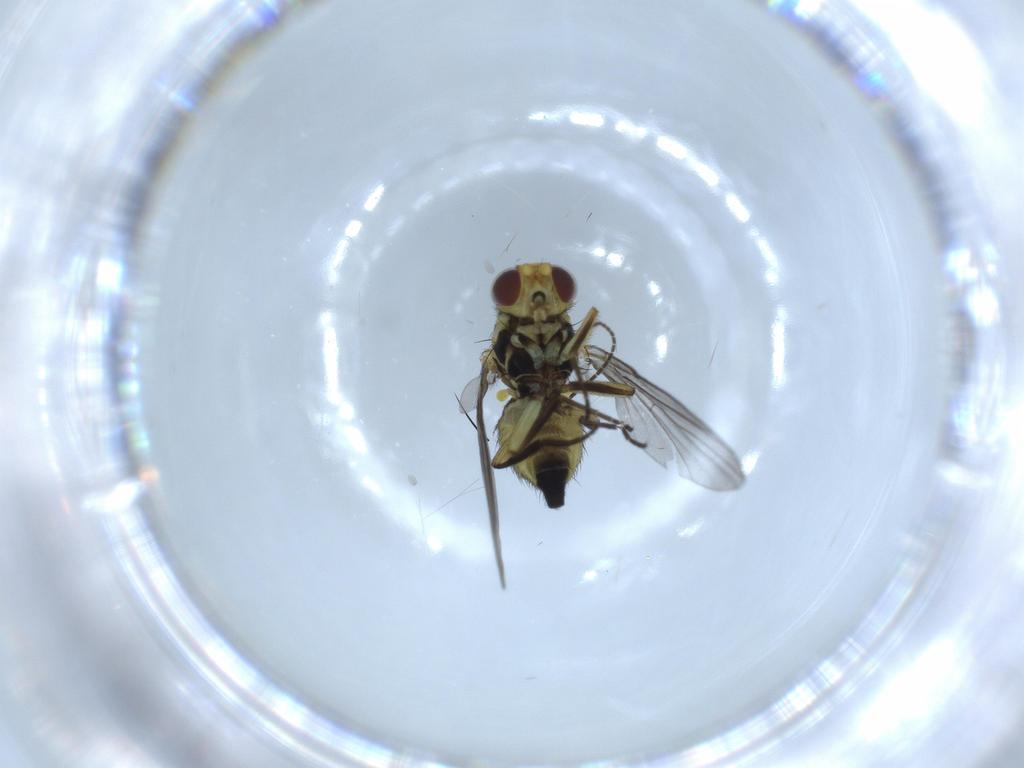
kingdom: Animalia
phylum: Arthropoda
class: Insecta
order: Diptera
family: Agromyzidae
